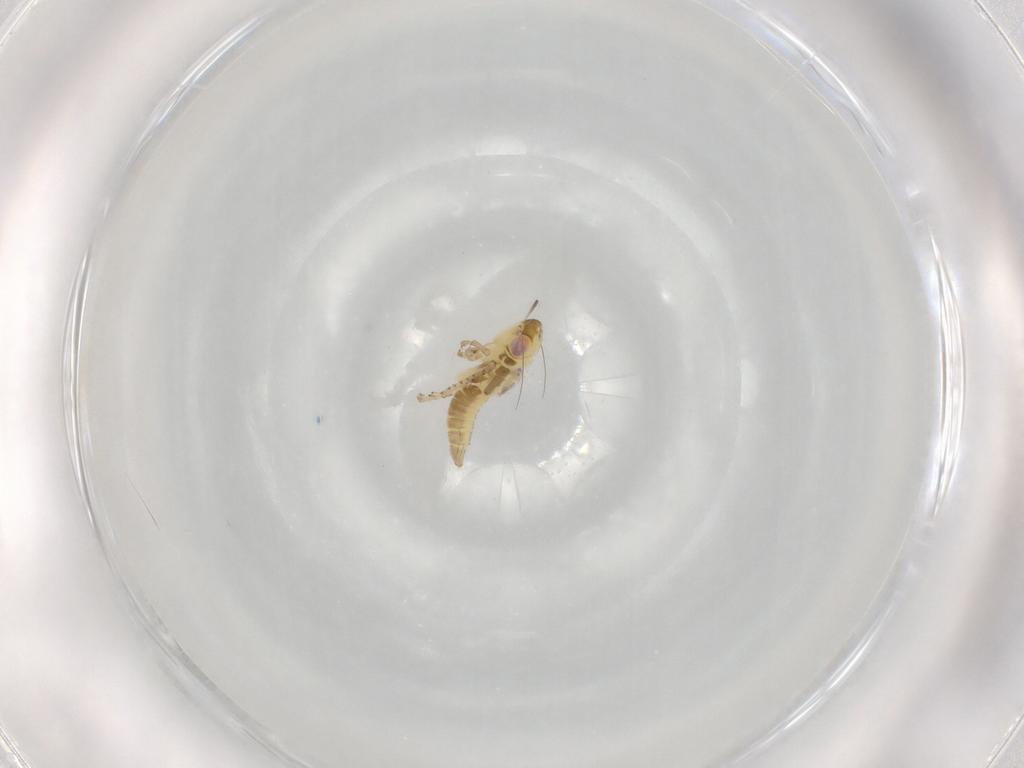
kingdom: Animalia
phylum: Arthropoda
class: Insecta
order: Hemiptera
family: Cicadellidae
